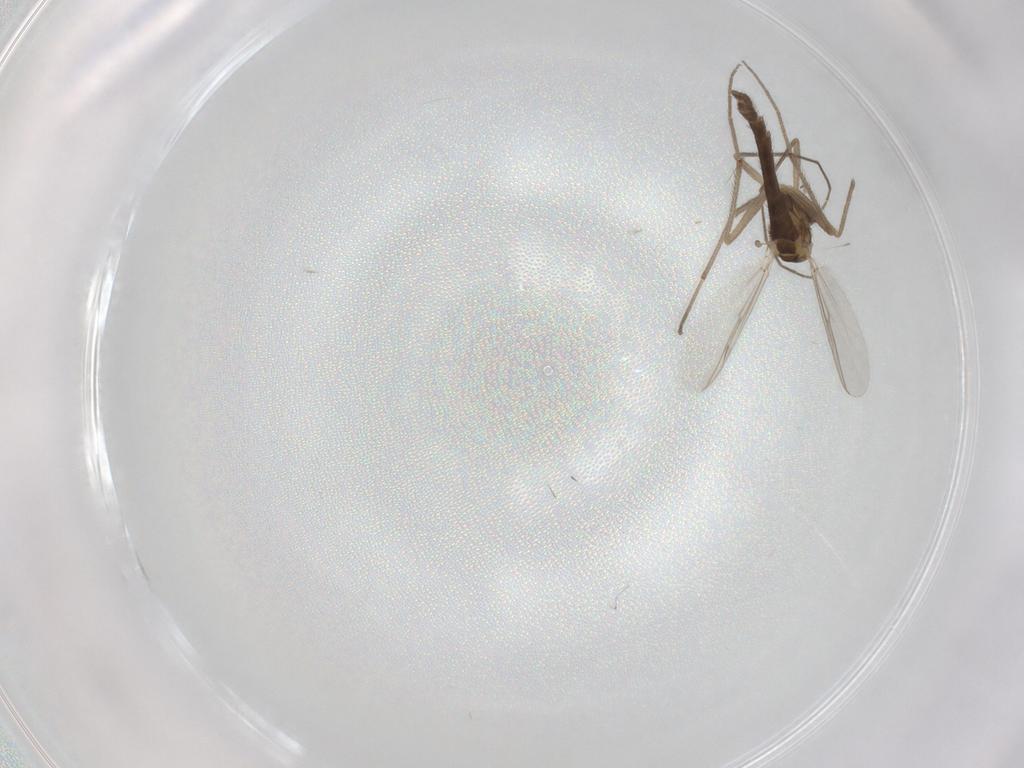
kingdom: Animalia
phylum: Arthropoda
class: Insecta
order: Diptera
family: Chironomidae
